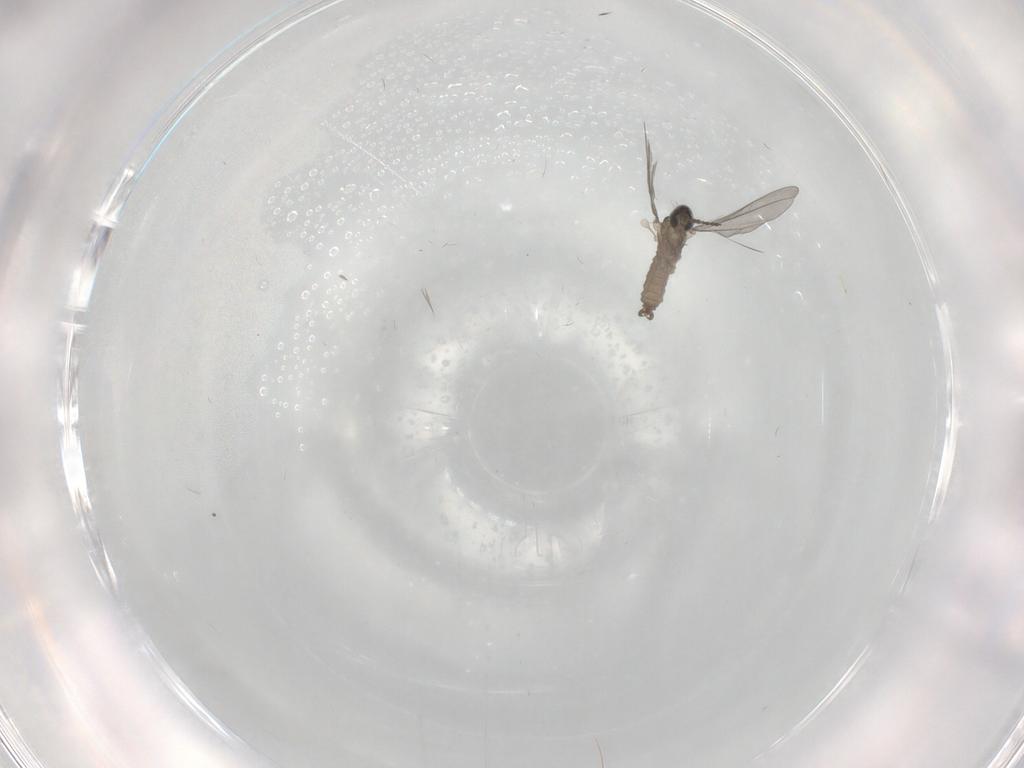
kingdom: Animalia
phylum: Arthropoda
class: Insecta
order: Diptera
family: Cecidomyiidae
